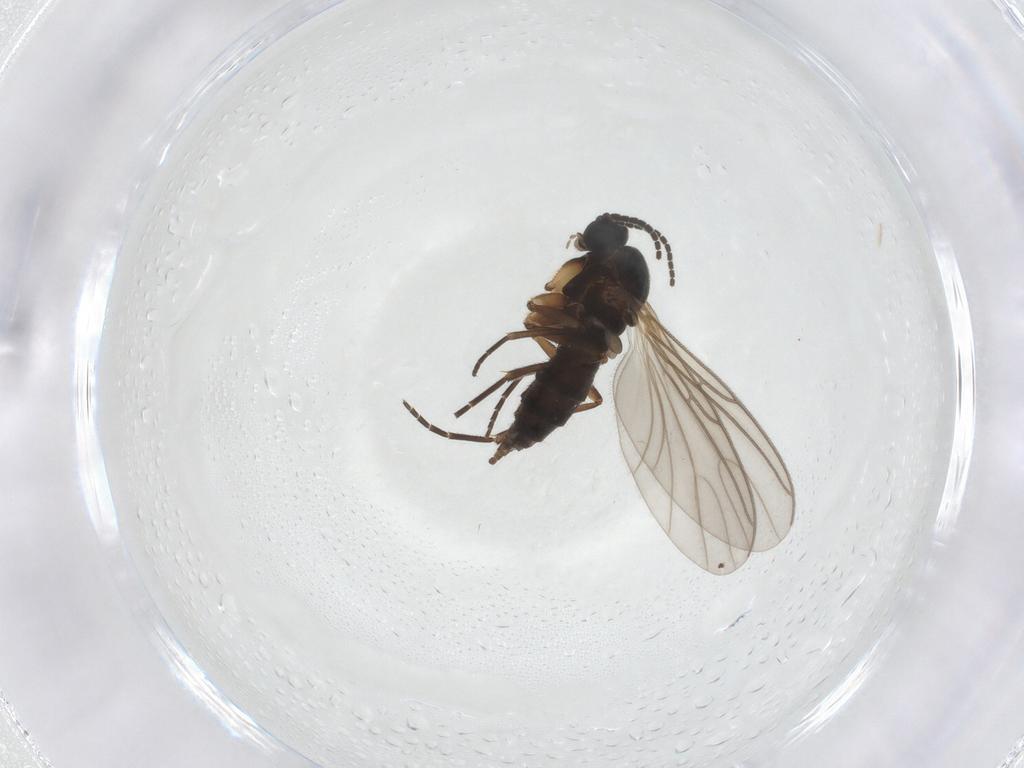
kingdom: Animalia
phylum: Arthropoda
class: Insecta
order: Diptera
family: Sciaridae
